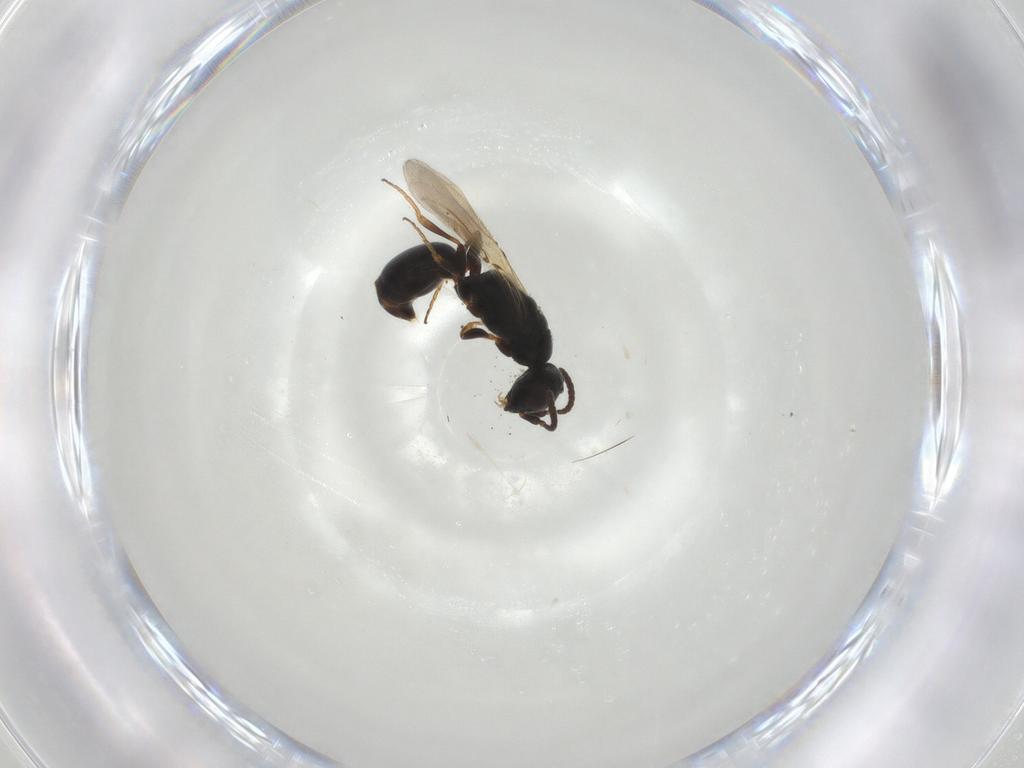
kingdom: Animalia
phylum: Arthropoda
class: Insecta
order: Hymenoptera
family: Bethylidae
